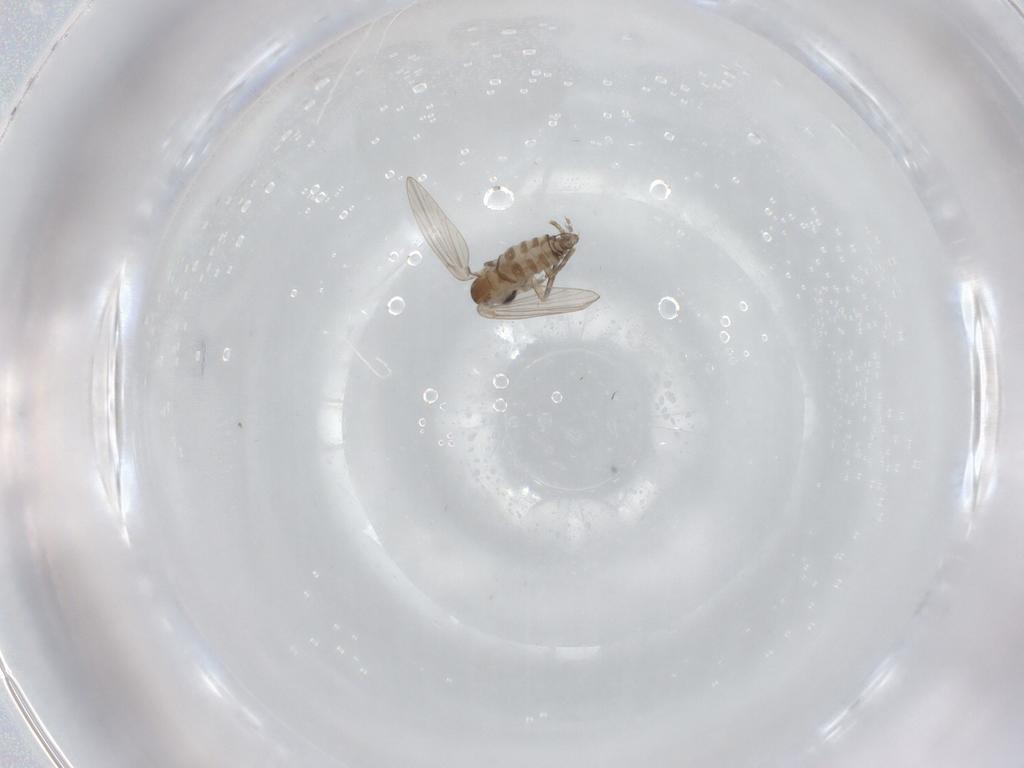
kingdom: Animalia
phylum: Arthropoda
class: Insecta
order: Diptera
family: Psychodidae
